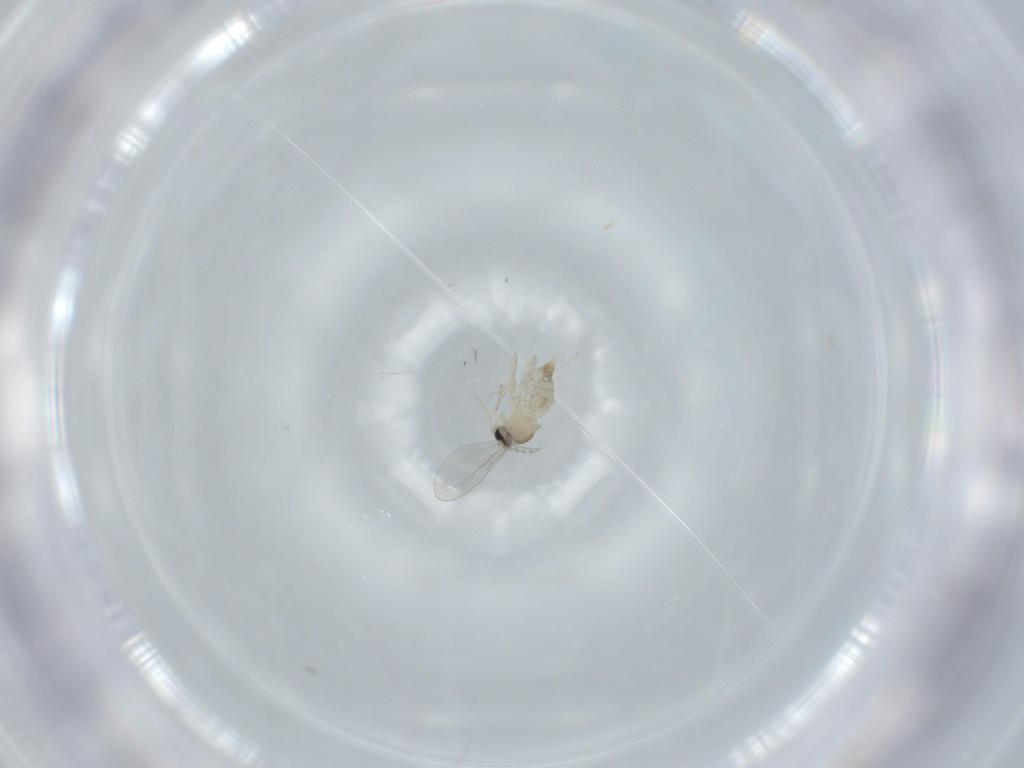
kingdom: Animalia
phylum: Arthropoda
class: Insecta
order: Diptera
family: Cecidomyiidae
